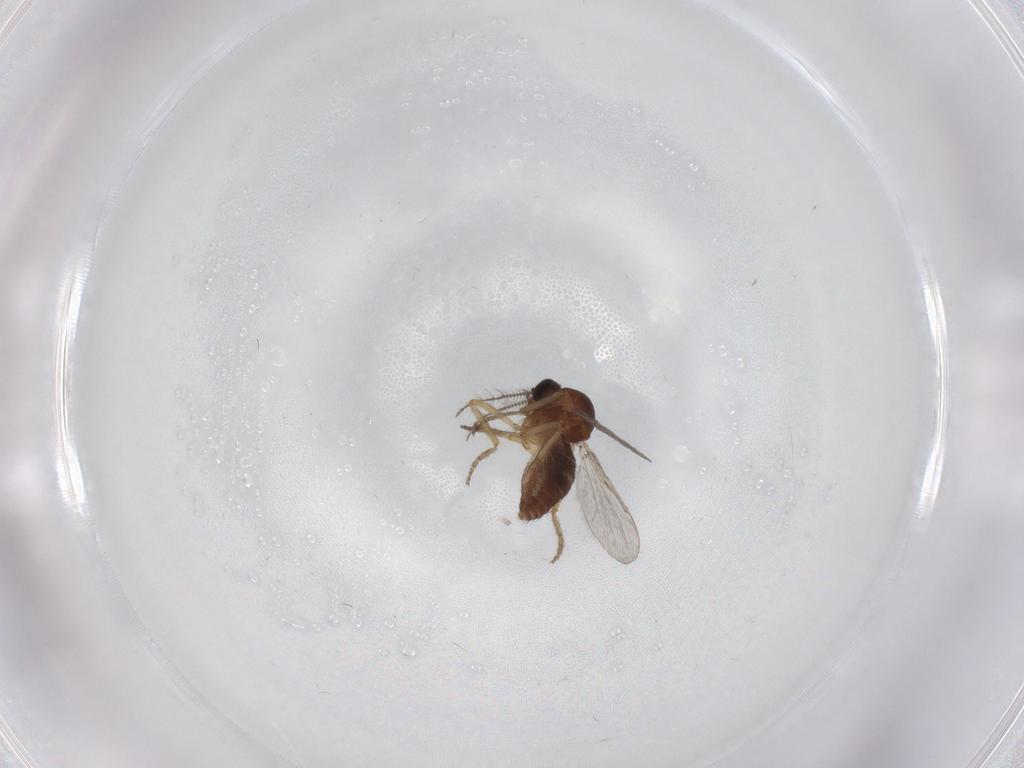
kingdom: Animalia
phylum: Arthropoda
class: Insecta
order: Diptera
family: Ceratopogonidae
